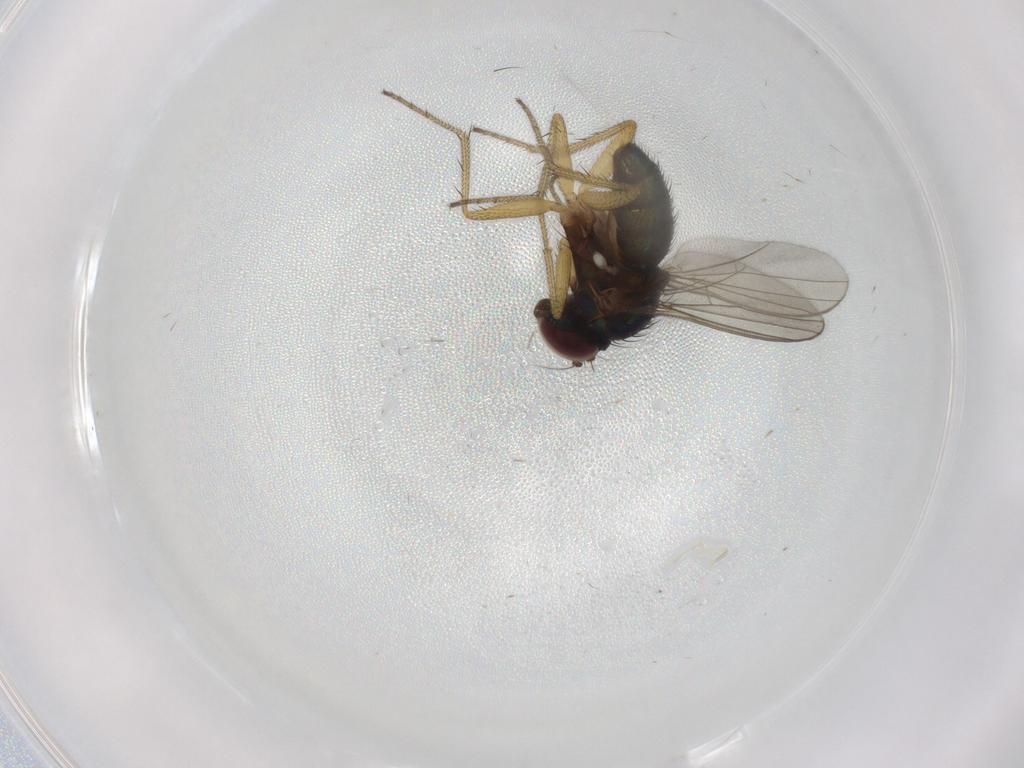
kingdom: Animalia
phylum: Arthropoda
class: Insecta
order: Diptera
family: Dolichopodidae
